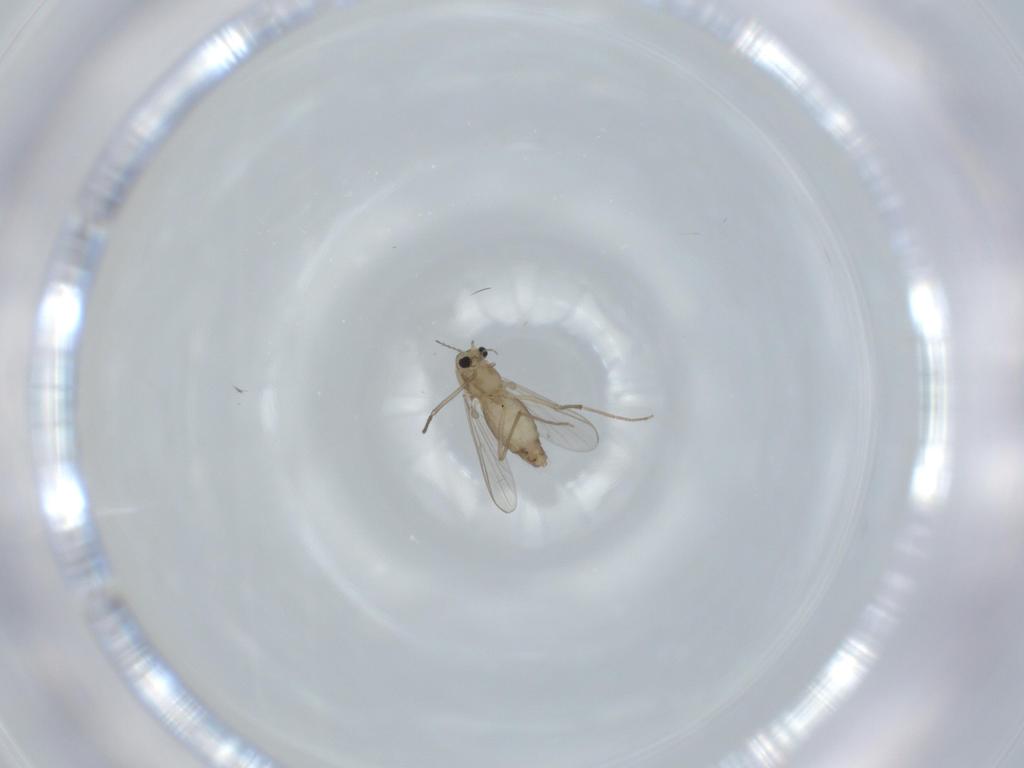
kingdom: Animalia
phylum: Arthropoda
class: Insecta
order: Diptera
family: Chironomidae
